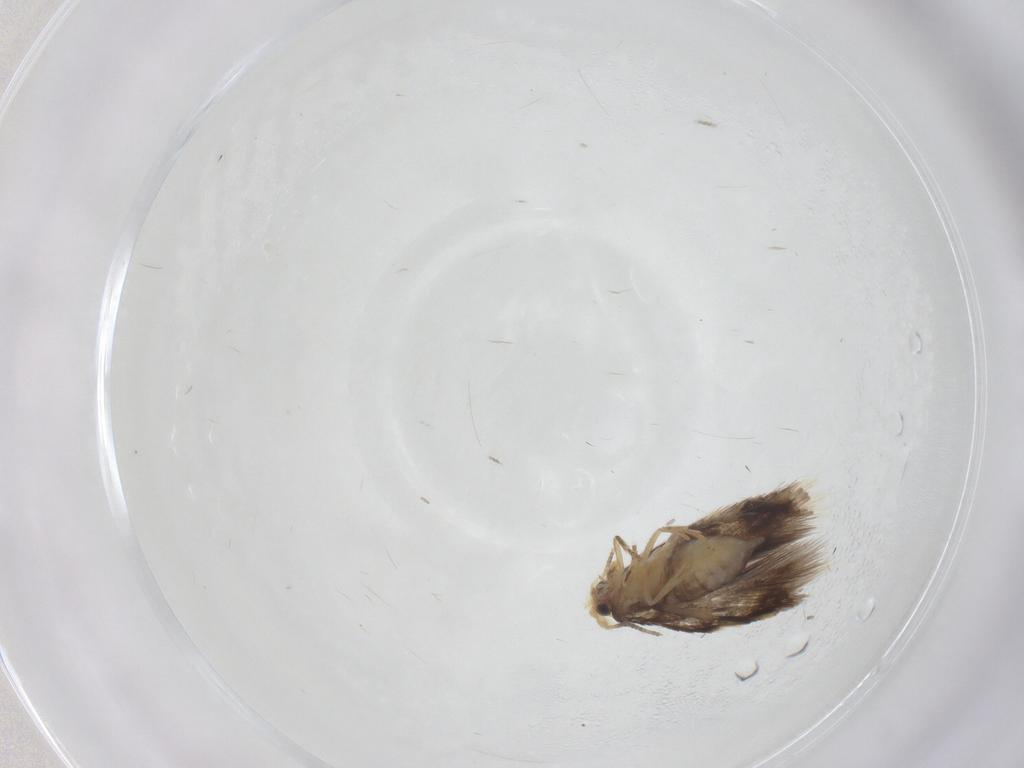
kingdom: Animalia
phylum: Arthropoda
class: Insecta
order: Lepidoptera
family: Nepticulidae
